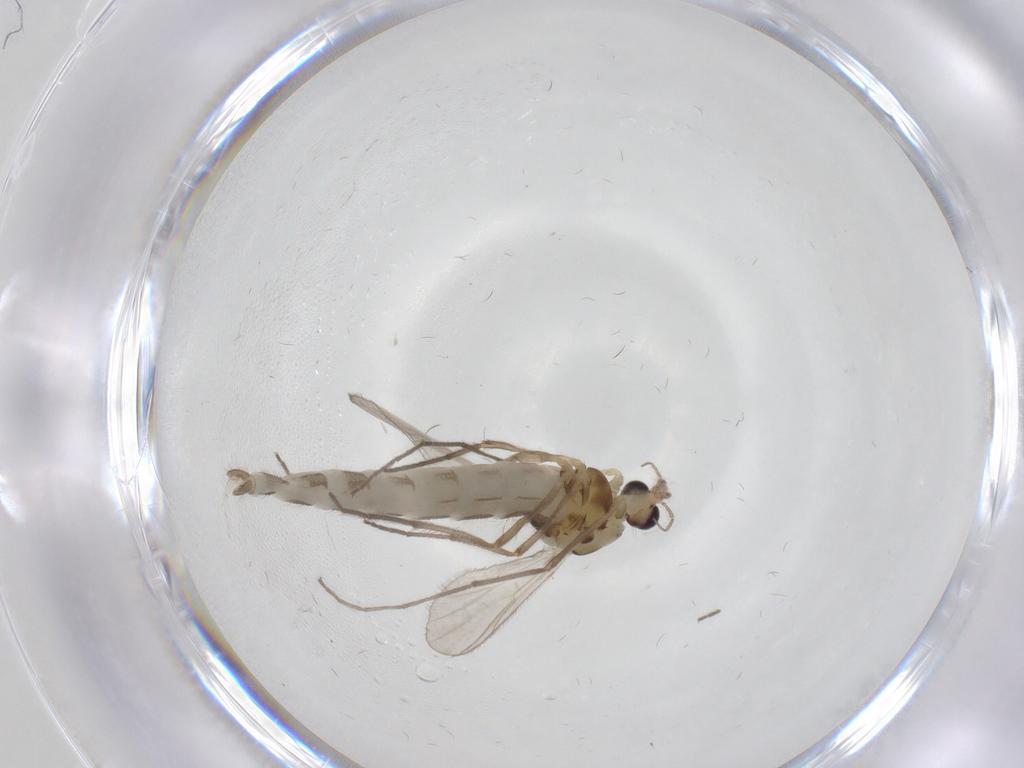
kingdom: Animalia
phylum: Arthropoda
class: Insecta
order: Diptera
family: Chironomidae
